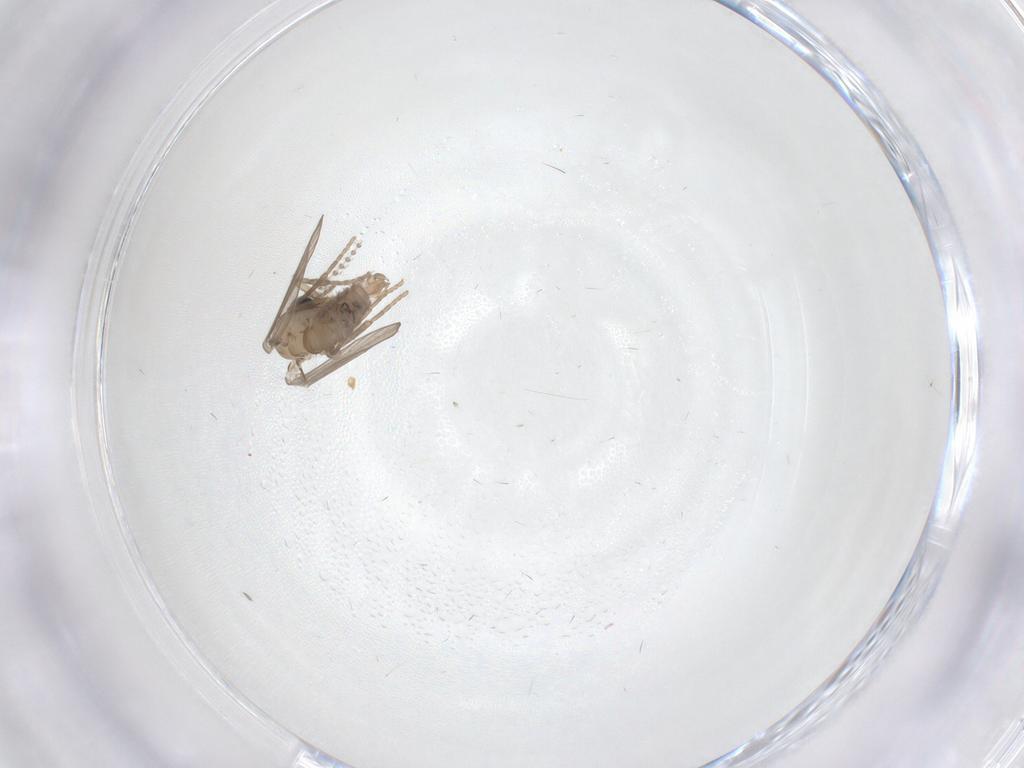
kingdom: Animalia
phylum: Arthropoda
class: Insecta
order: Diptera
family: Psychodidae
